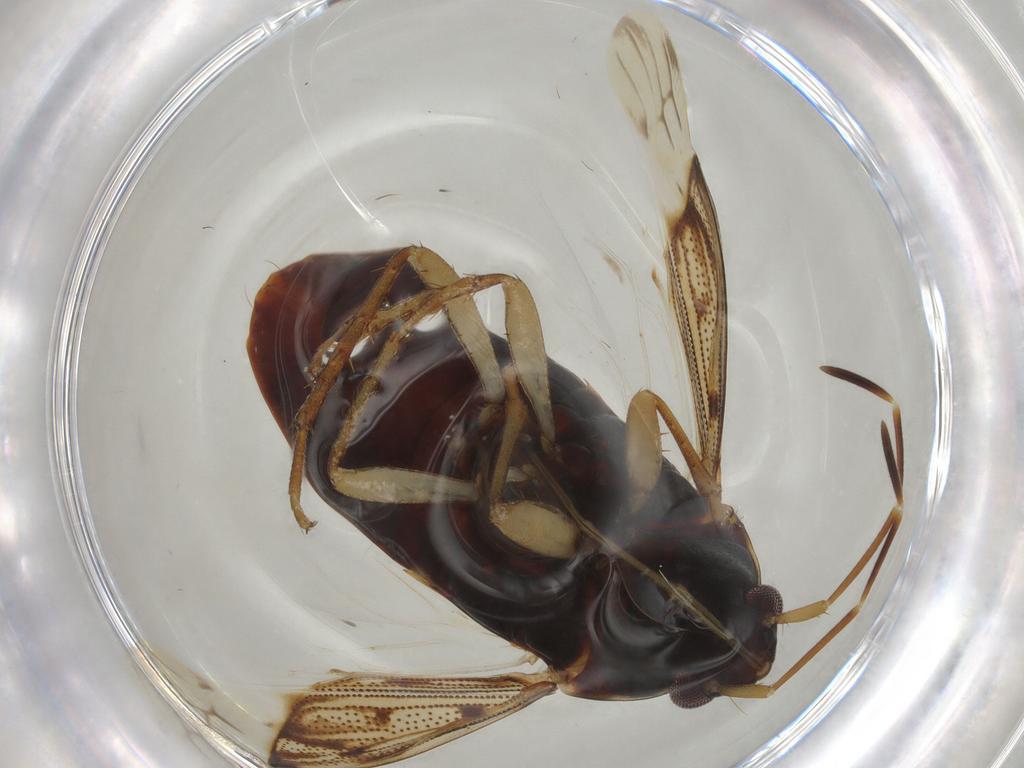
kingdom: Animalia
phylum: Arthropoda
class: Insecta
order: Hemiptera
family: Rhyparochromidae
